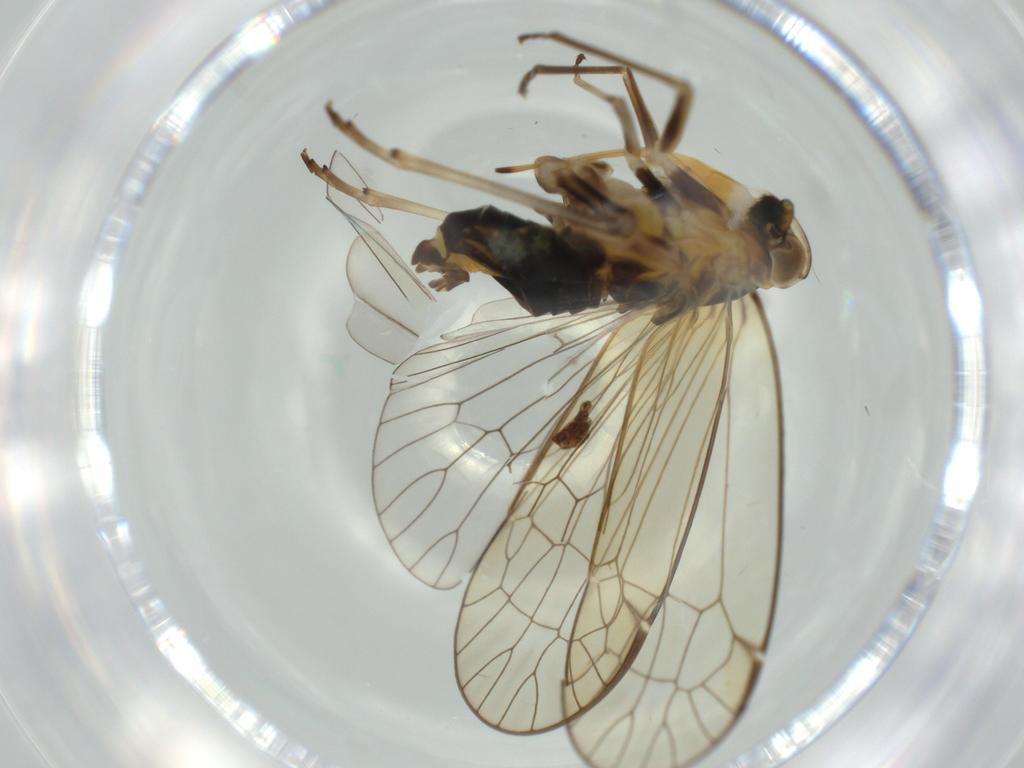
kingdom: Animalia
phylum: Arthropoda
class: Insecta
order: Hemiptera
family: Kinnaridae
